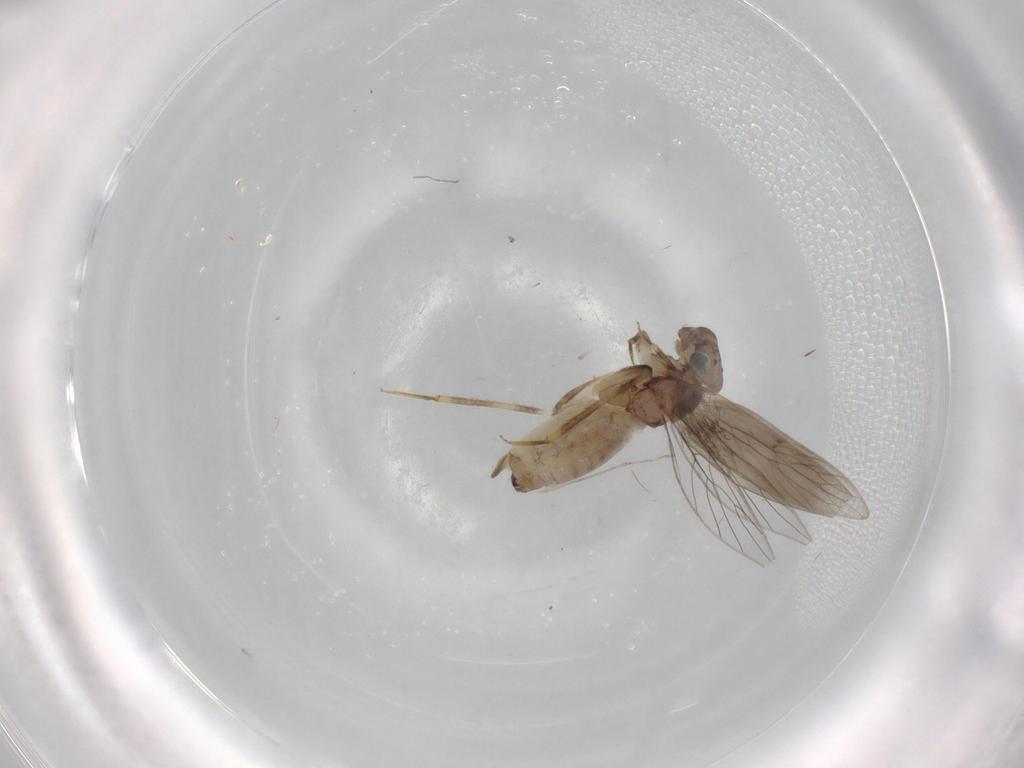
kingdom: Animalia
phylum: Arthropoda
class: Insecta
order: Psocodea
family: Lepidopsocidae
